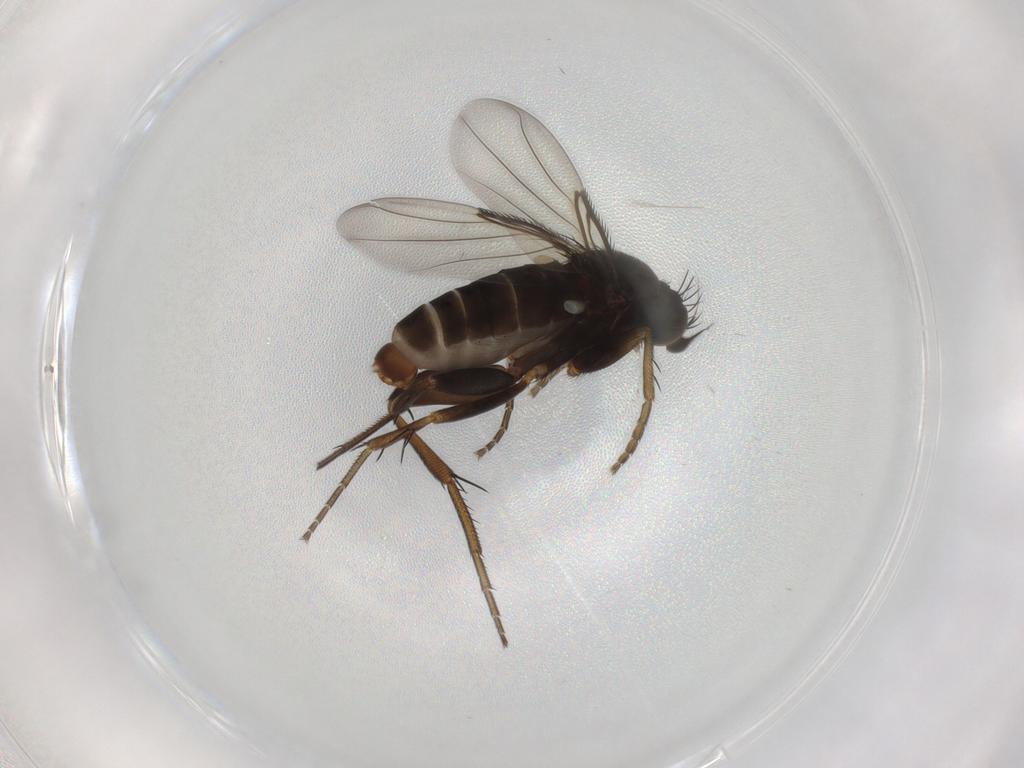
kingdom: Animalia
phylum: Arthropoda
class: Insecta
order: Diptera
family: Phoridae
